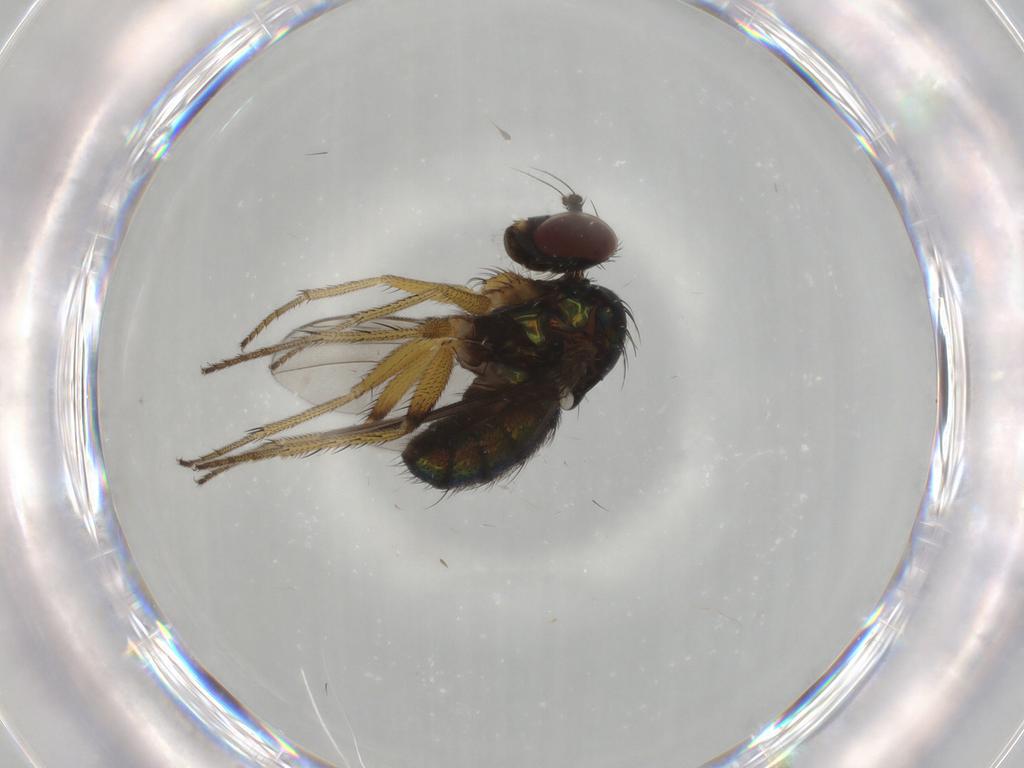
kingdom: Animalia
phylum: Arthropoda
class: Insecta
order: Diptera
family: Dolichopodidae
